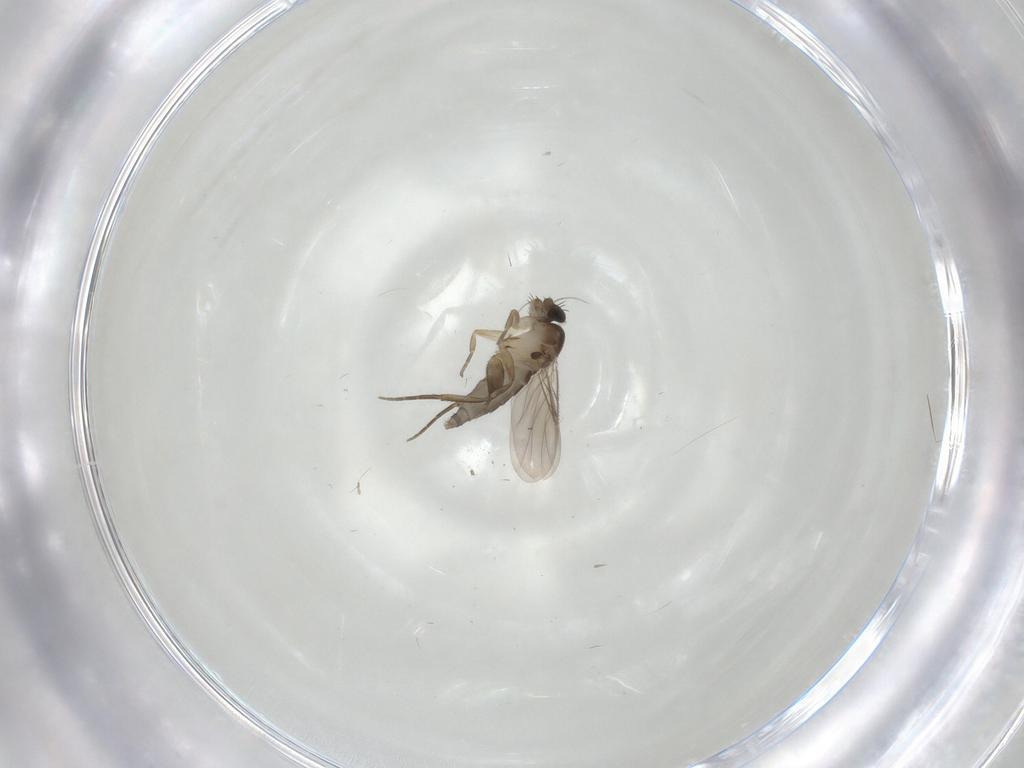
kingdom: Animalia
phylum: Arthropoda
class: Insecta
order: Diptera
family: Phoridae
